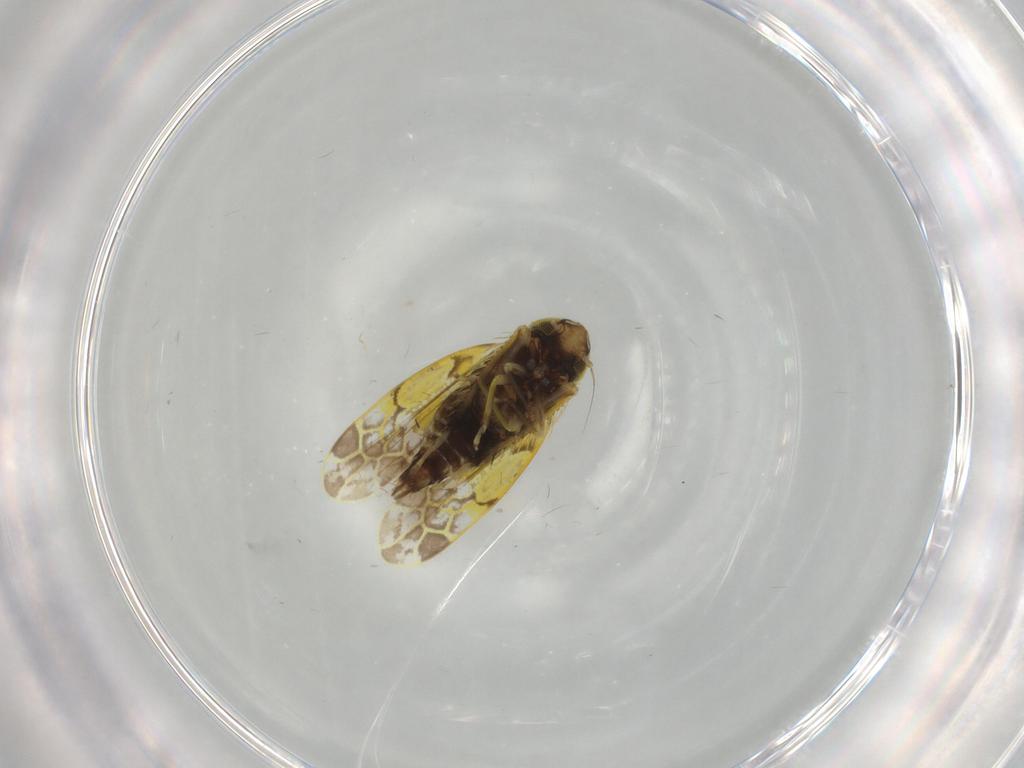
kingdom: Animalia
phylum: Arthropoda
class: Insecta
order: Hemiptera
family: Cicadellidae
